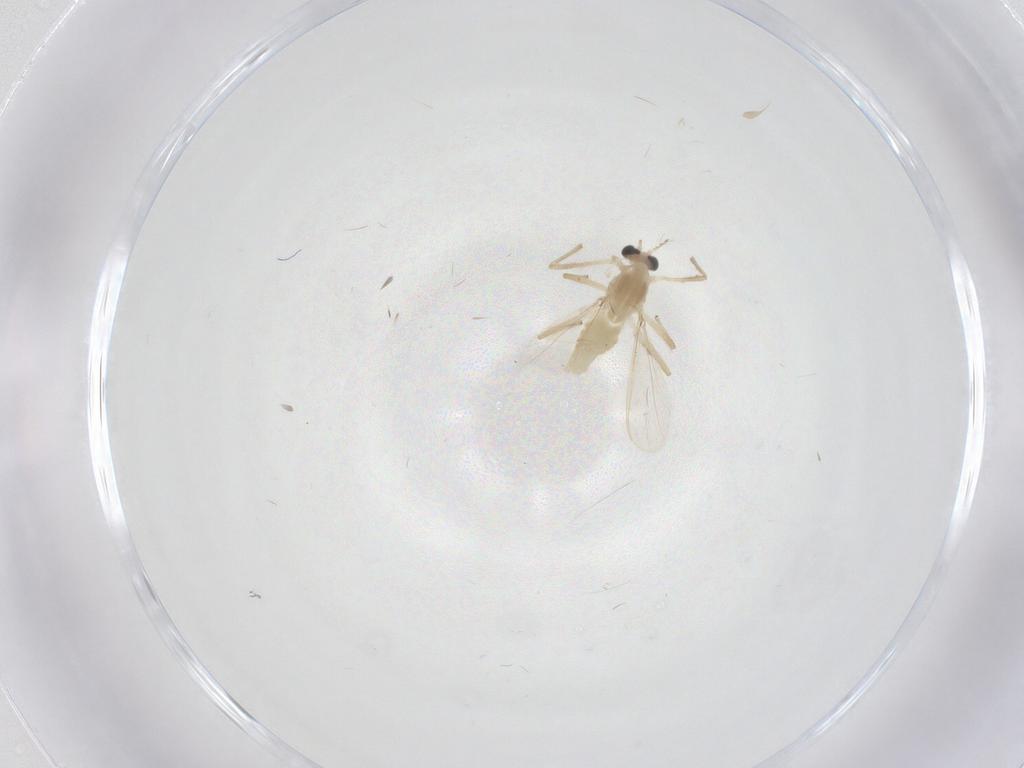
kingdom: Animalia
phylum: Arthropoda
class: Insecta
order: Diptera
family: Chironomidae
